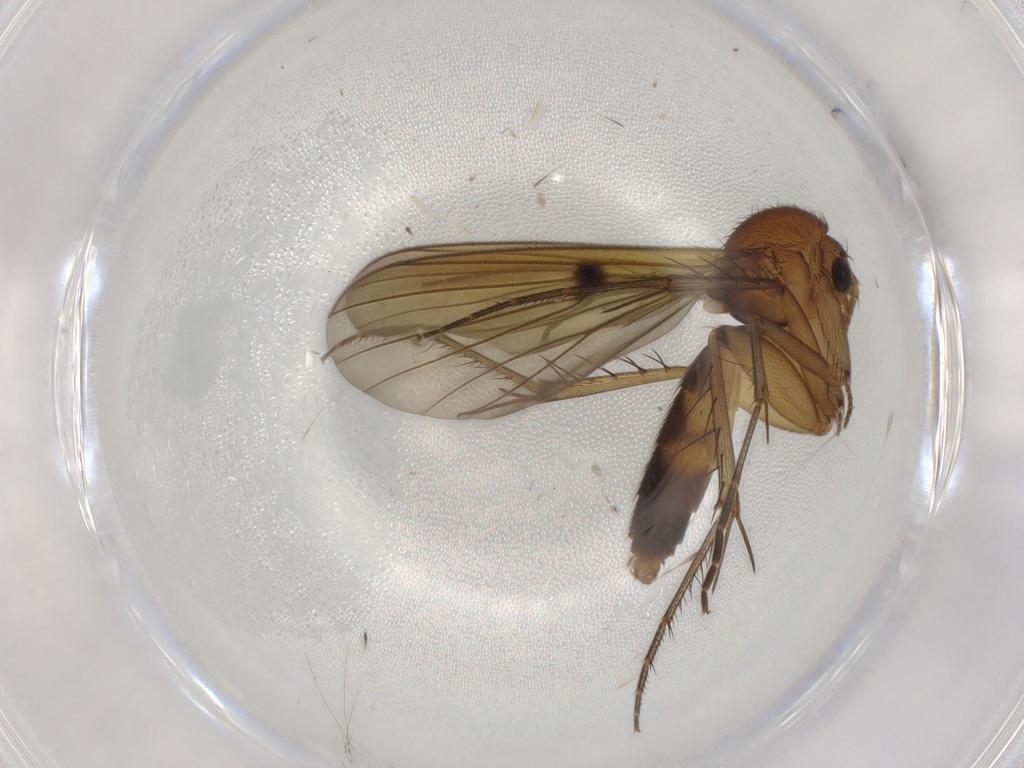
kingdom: Animalia
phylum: Arthropoda
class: Insecta
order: Diptera
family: Mycetophilidae
